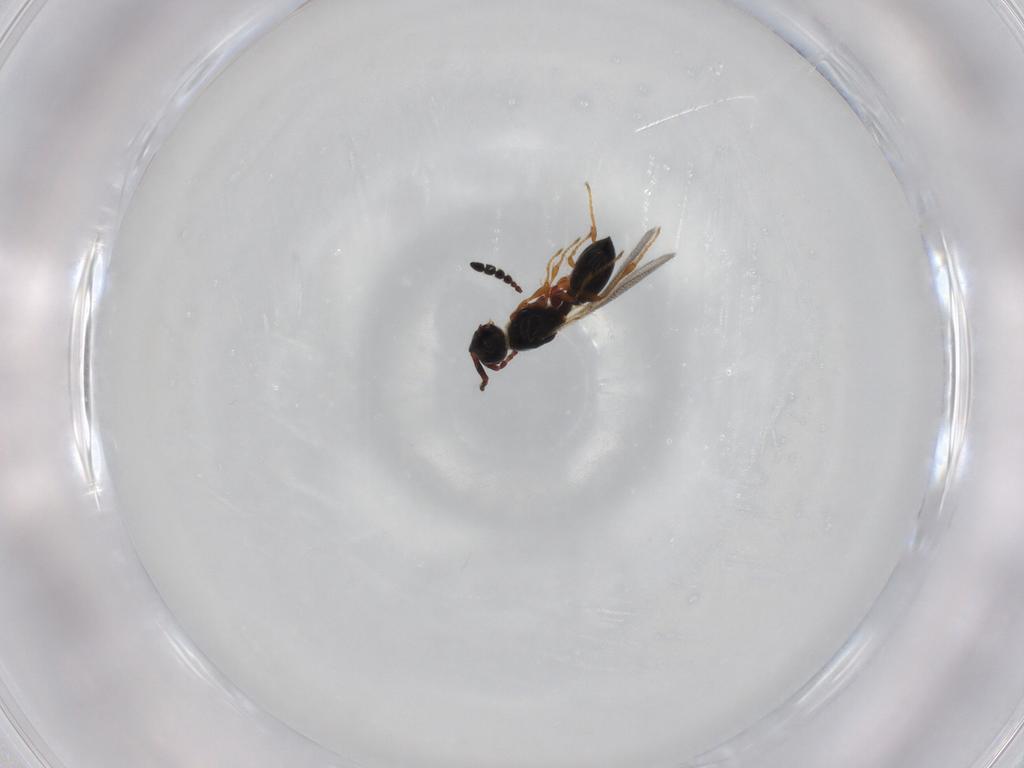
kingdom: Animalia
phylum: Arthropoda
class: Insecta
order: Hymenoptera
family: Diapriidae
